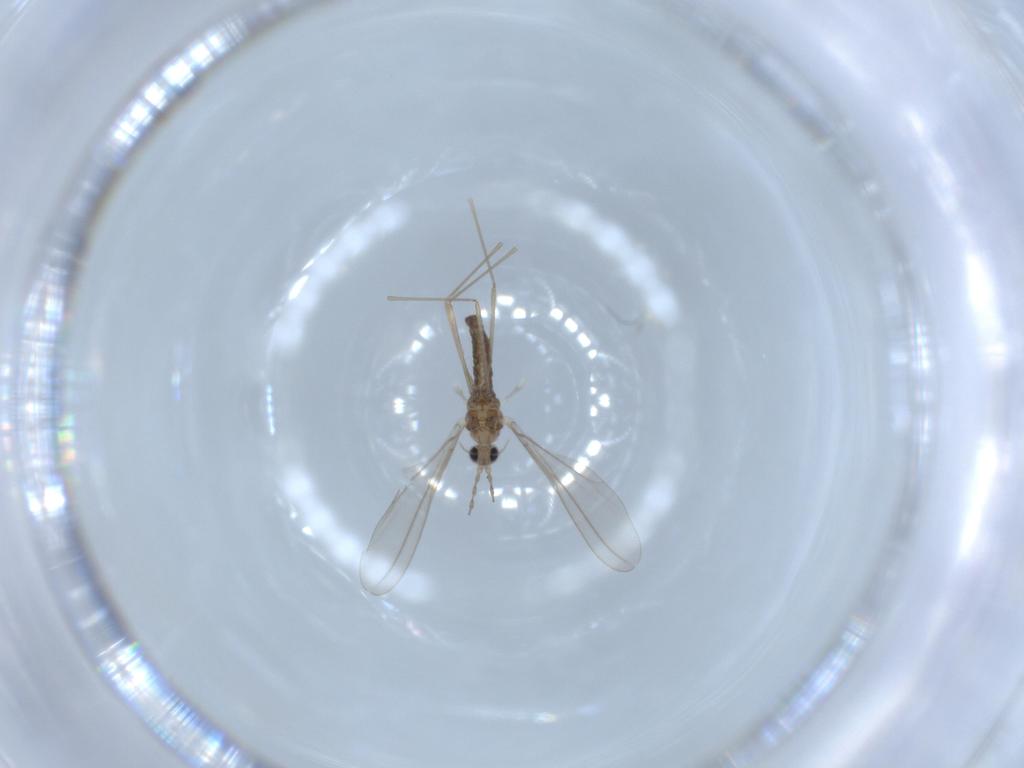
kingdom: Animalia
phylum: Arthropoda
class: Insecta
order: Diptera
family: Phoridae
